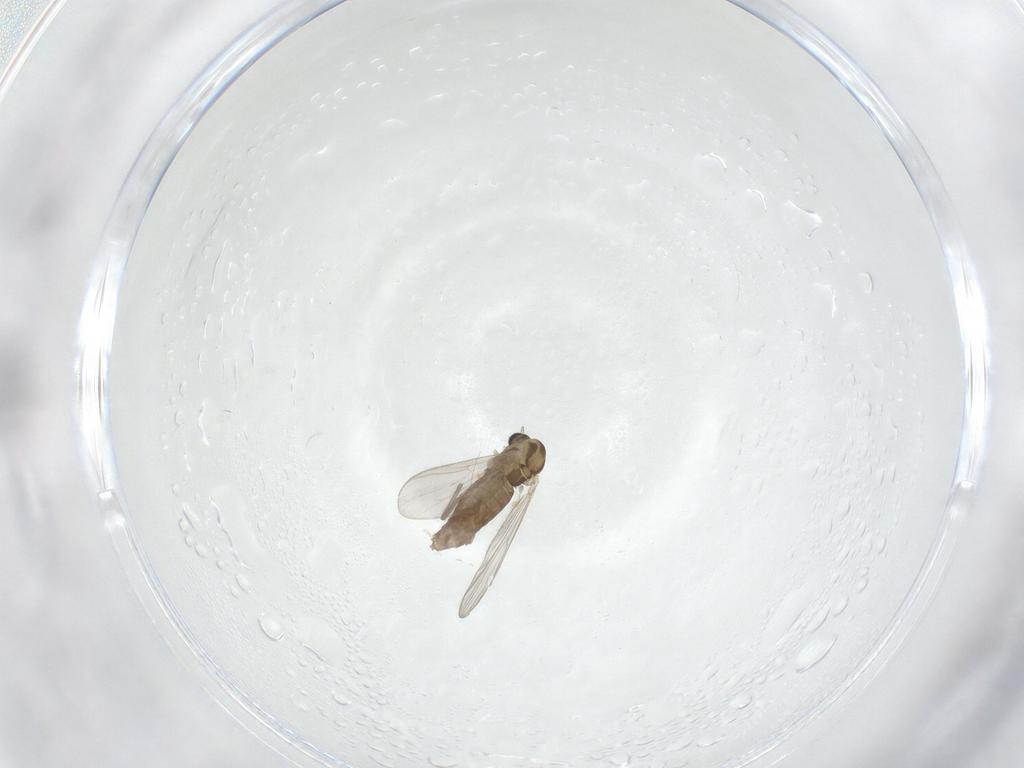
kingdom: Animalia
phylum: Arthropoda
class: Insecta
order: Diptera
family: Chironomidae
